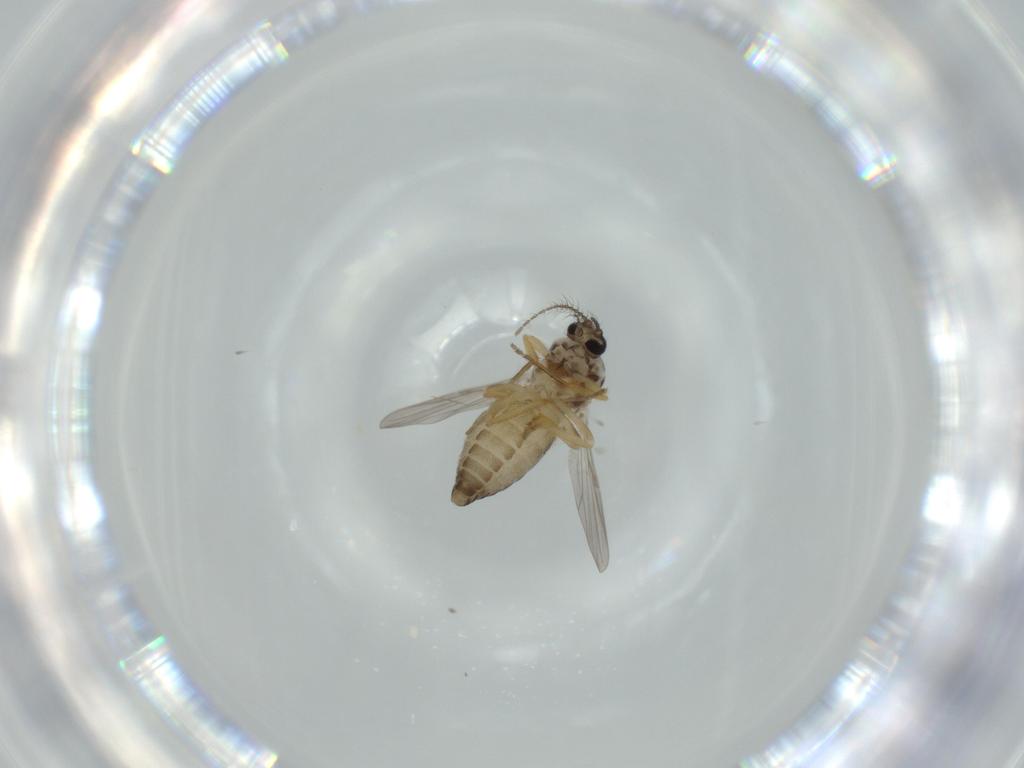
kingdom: Animalia
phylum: Arthropoda
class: Insecta
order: Diptera
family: Ceratopogonidae
